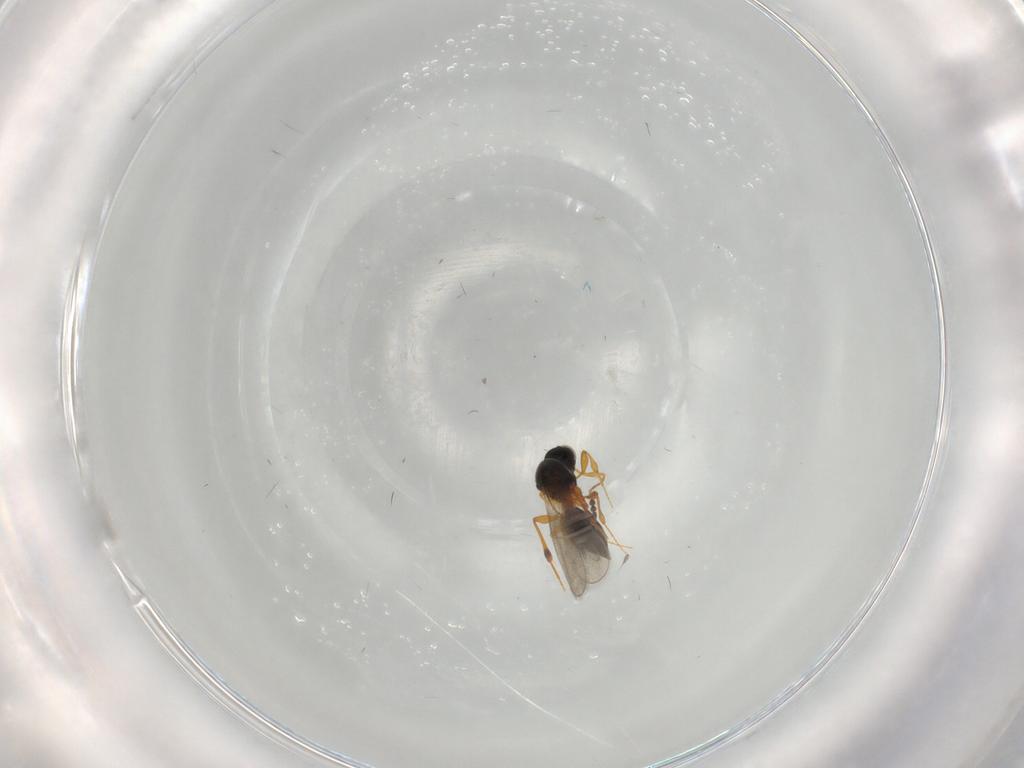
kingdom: Animalia
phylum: Arthropoda
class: Insecta
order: Hymenoptera
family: Platygastridae
